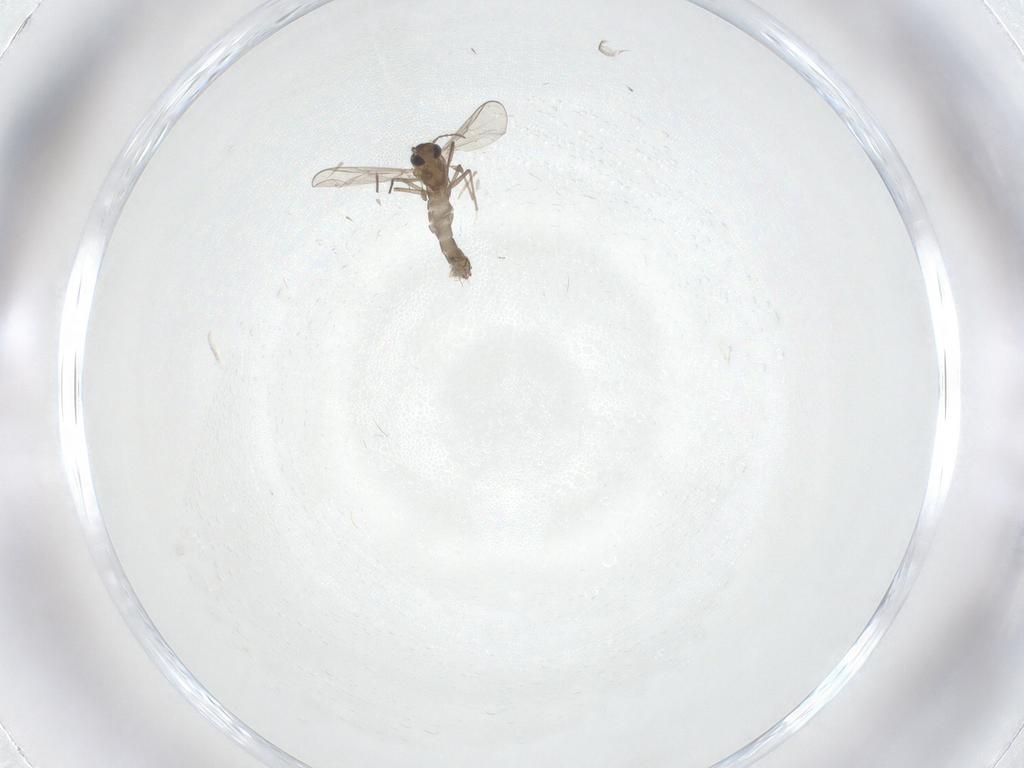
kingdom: Animalia
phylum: Arthropoda
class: Insecta
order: Diptera
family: Chironomidae
